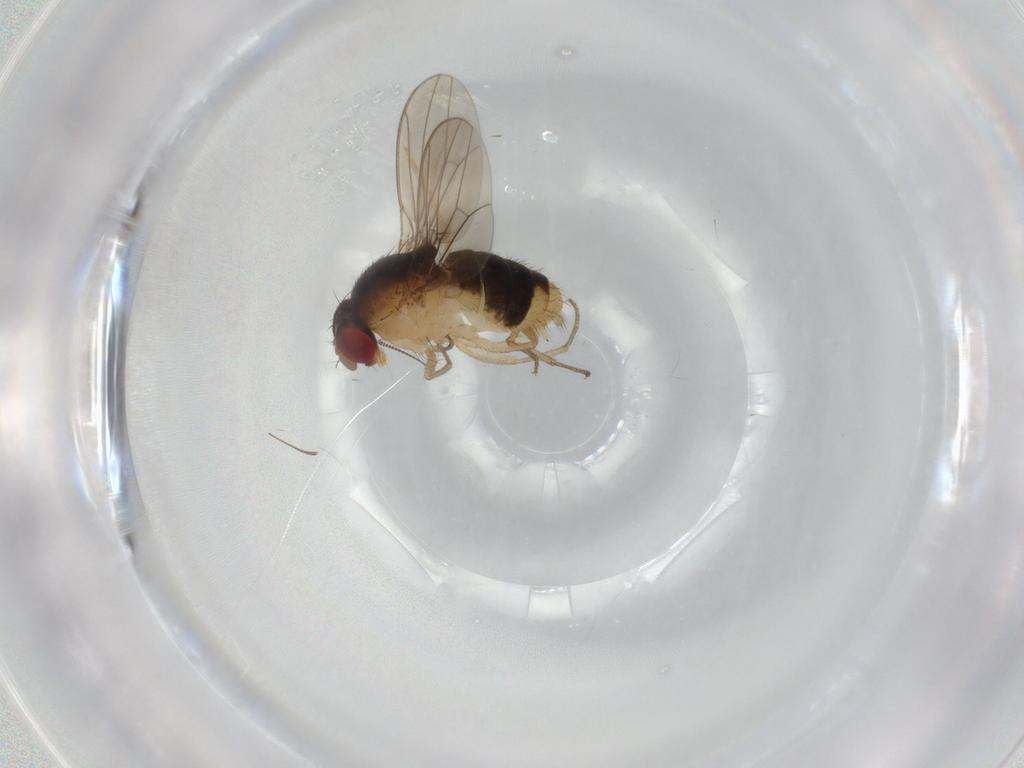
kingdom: Animalia
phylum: Arthropoda
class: Insecta
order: Diptera
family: Drosophilidae
